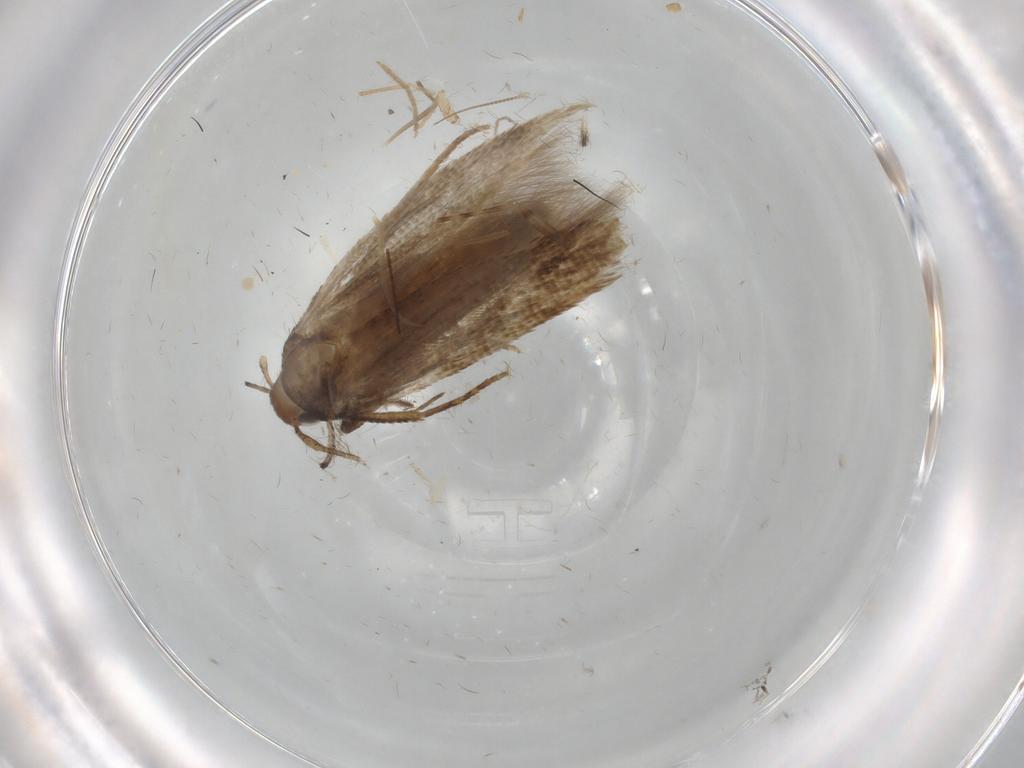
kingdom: Animalia
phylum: Arthropoda
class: Insecta
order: Lepidoptera
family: Cosmopterigidae
